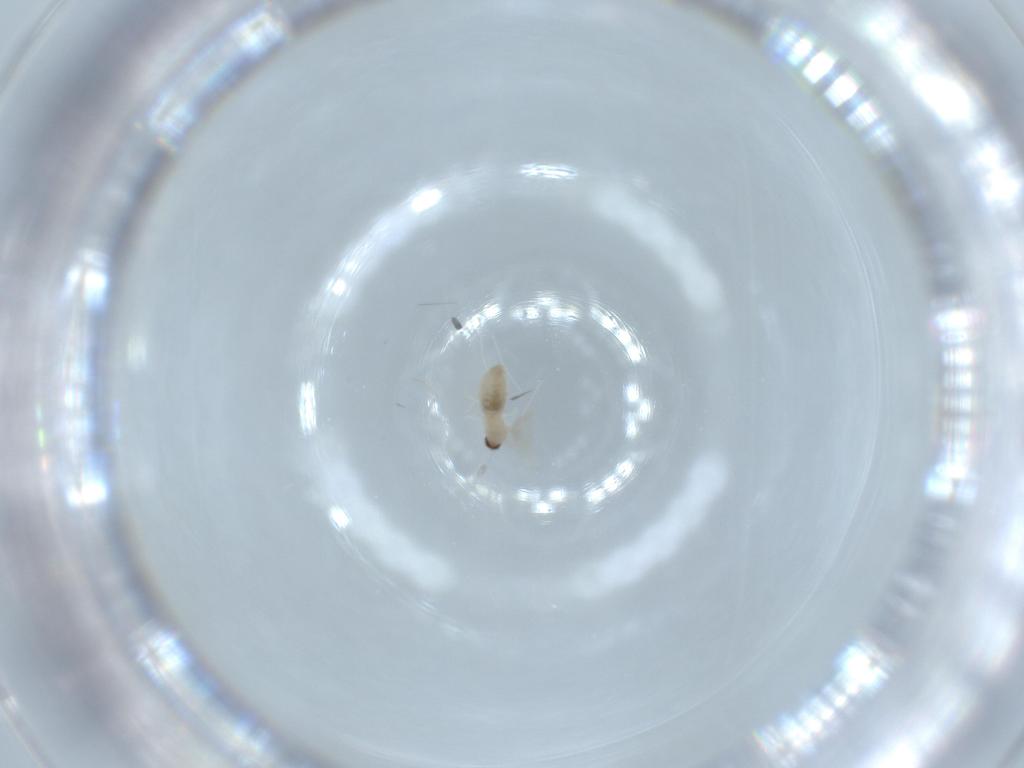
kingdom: Animalia
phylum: Arthropoda
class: Insecta
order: Diptera
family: Cecidomyiidae
